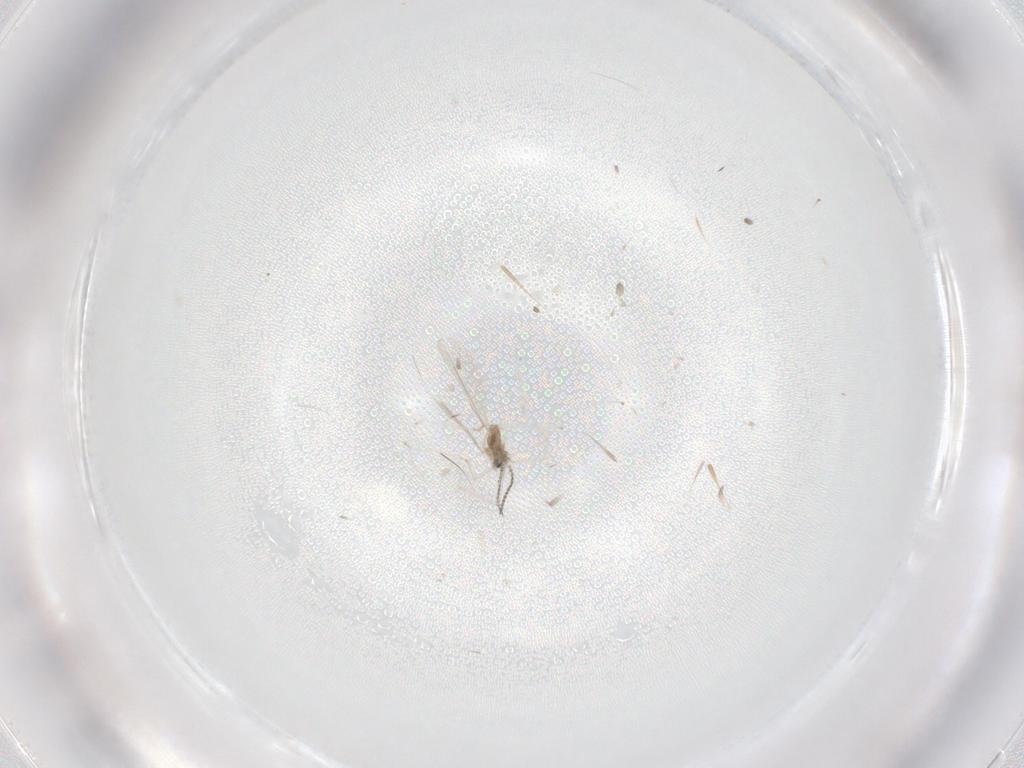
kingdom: Animalia
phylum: Arthropoda
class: Insecta
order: Diptera
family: Cecidomyiidae
